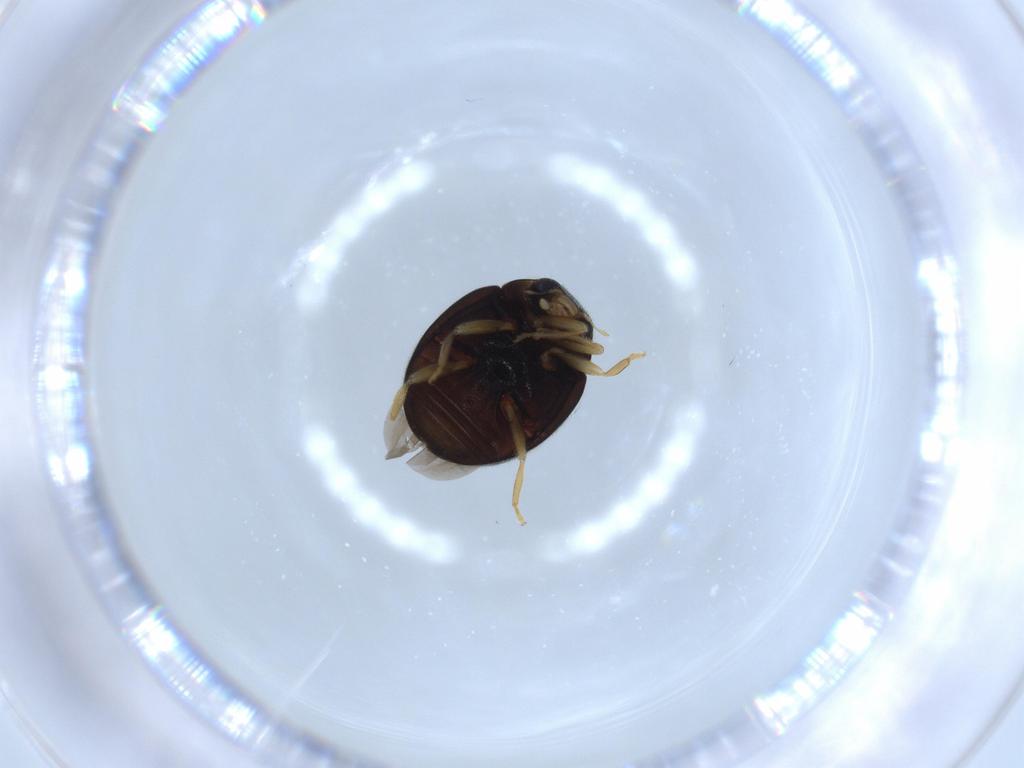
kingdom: Animalia
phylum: Arthropoda
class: Insecta
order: Coleoptera
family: Coccinellidae
